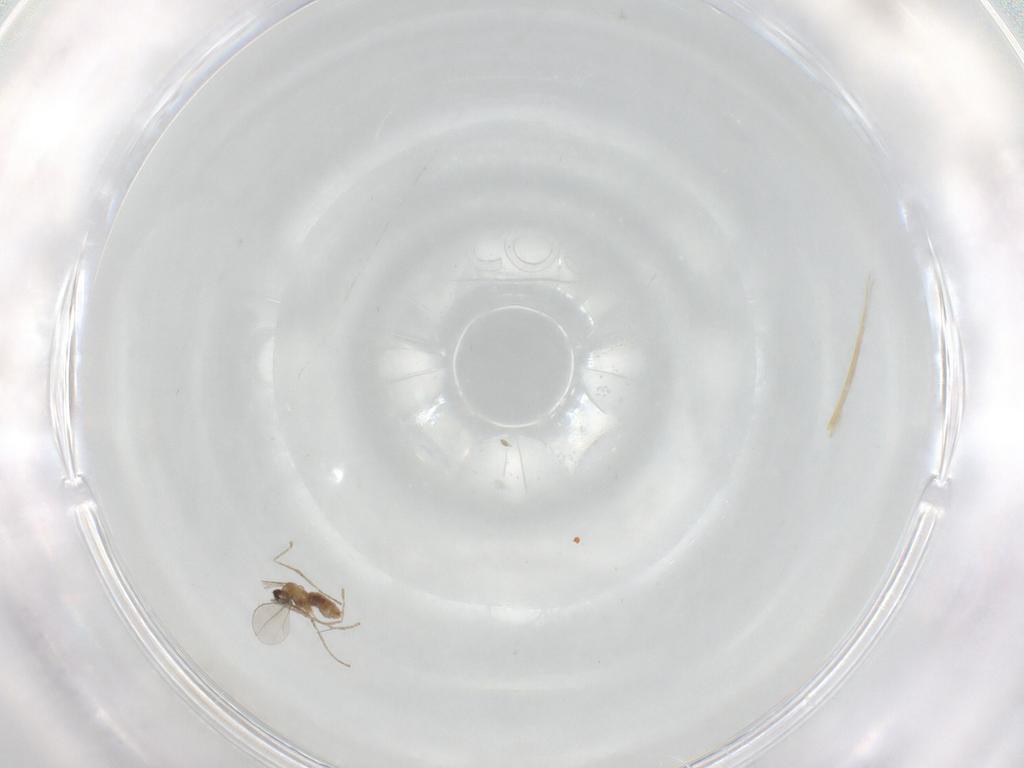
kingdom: Animalia
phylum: Arthropoda
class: Insecta
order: Diptera
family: Cecidomyiidae
